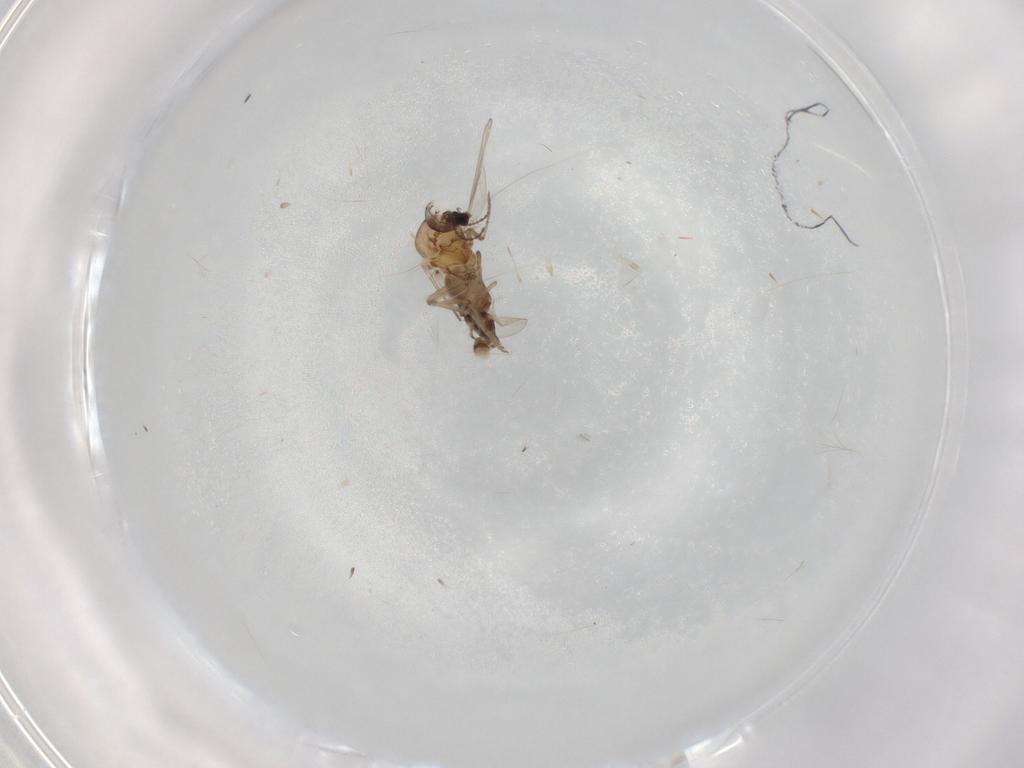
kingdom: Animalia
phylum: Arthropoda
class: Insecta
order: Diptera
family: Ceratopogonidae
